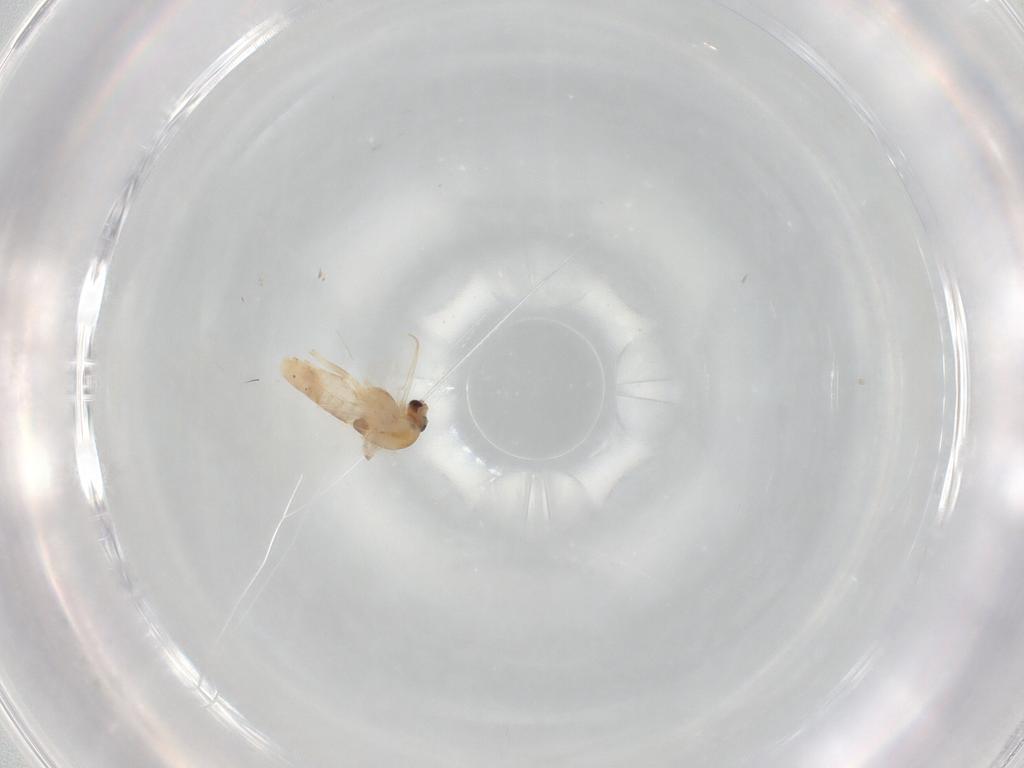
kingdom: Animalia
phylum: Arthropoda
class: Insecta
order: Diptera
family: Chironomidae
